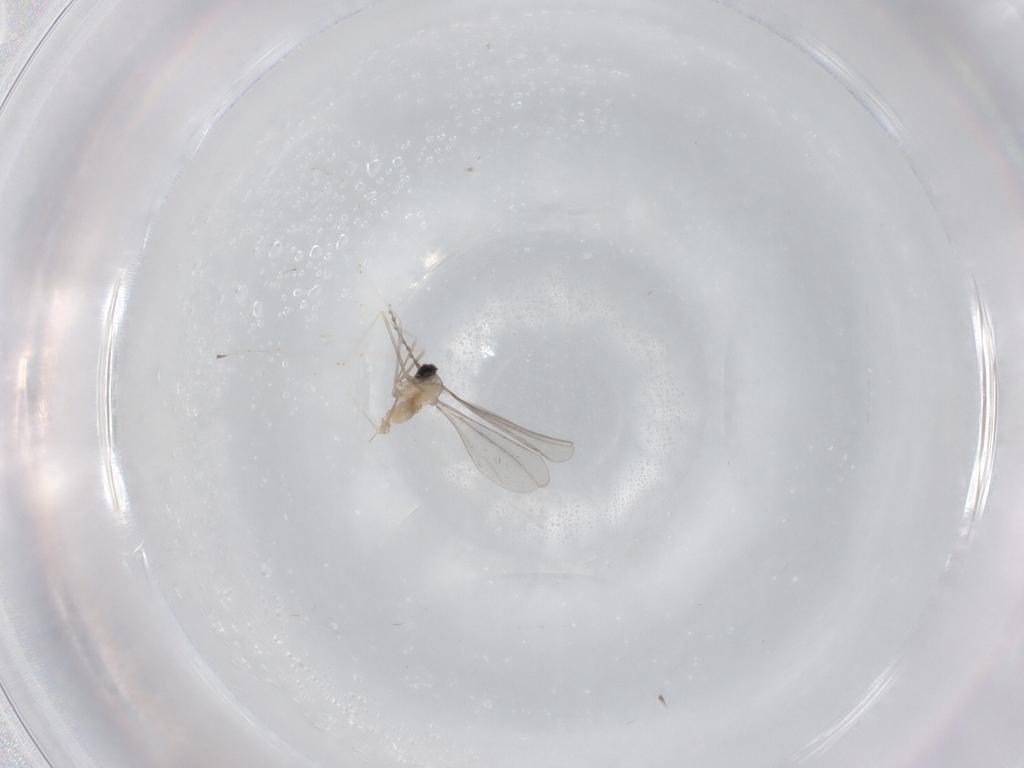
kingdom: Animalia
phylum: Arthropoda
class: Insecta
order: Diptera
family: Cecidomyiidae
